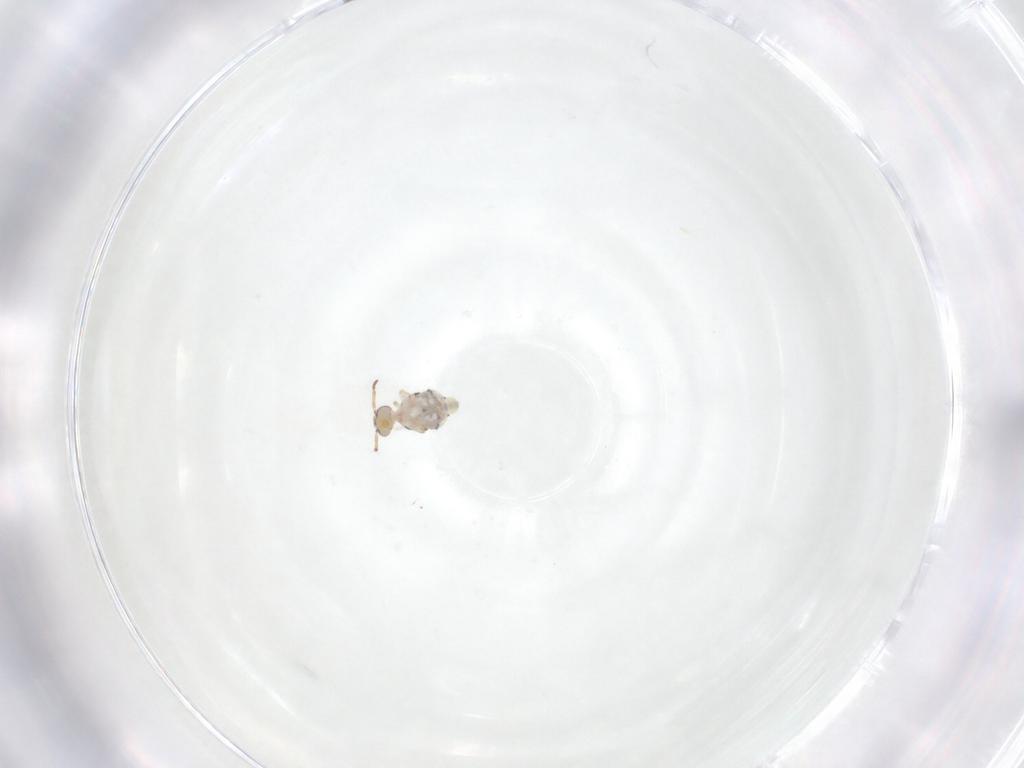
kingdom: Animalia
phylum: Arthropoda
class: Collembola
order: Symphypleona
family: Bourletiellidae
